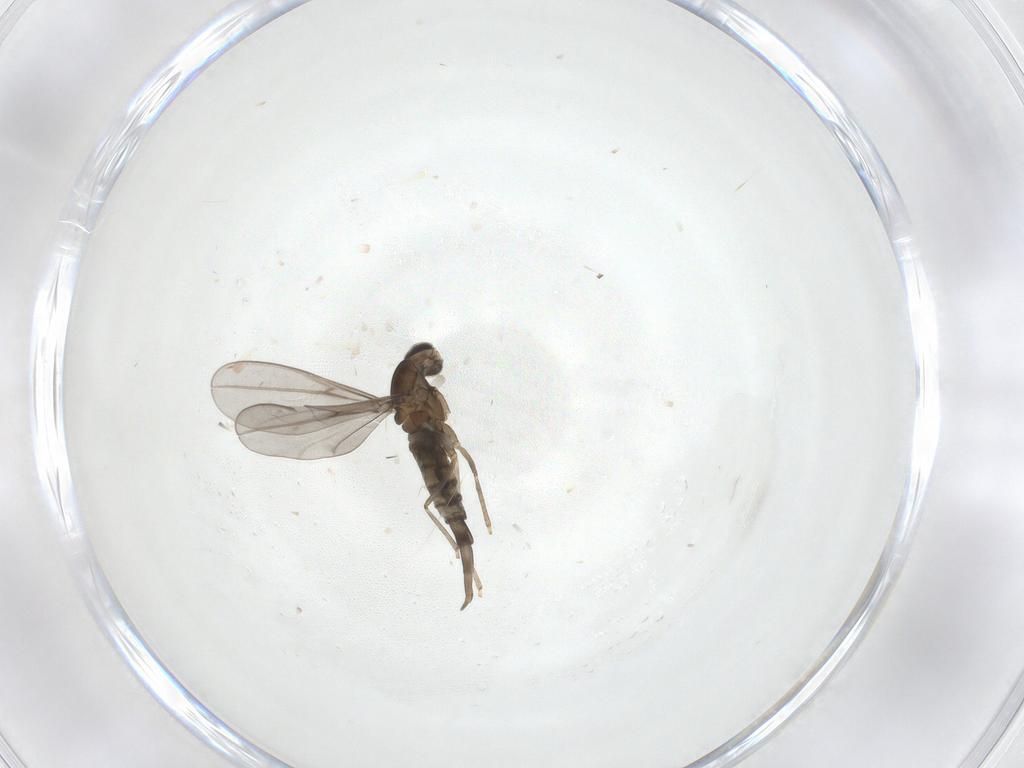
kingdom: Animalia
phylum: Arthropoda
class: Insecta
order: Diptera
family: Cecidomyiidae
